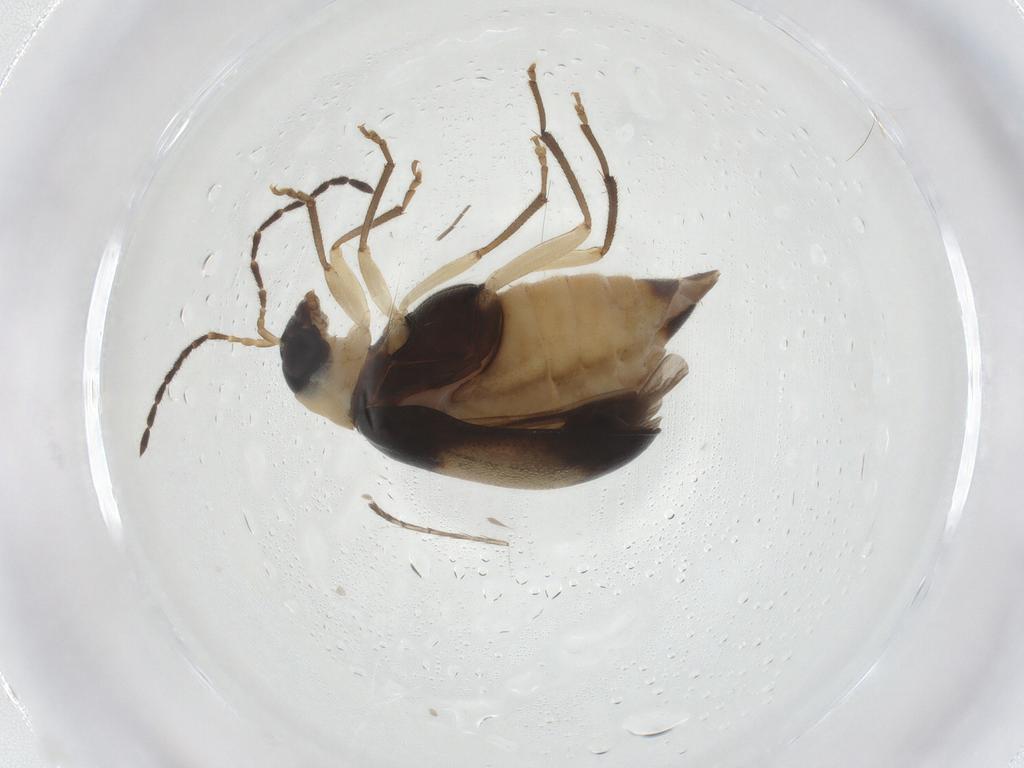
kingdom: Animalia
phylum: Arthropoda
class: Insecta
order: Coleoptera
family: Chrysomelidae
